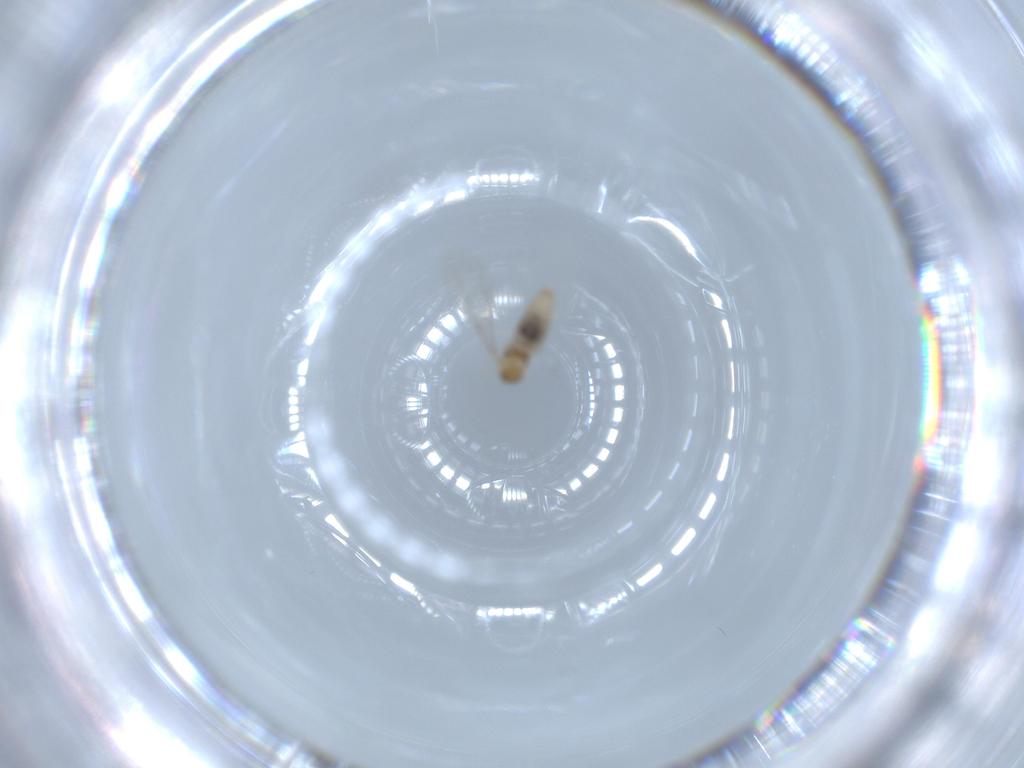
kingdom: Animalia
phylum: Arthropoda
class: Insecta
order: Diptera
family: Cecidomyiidae
